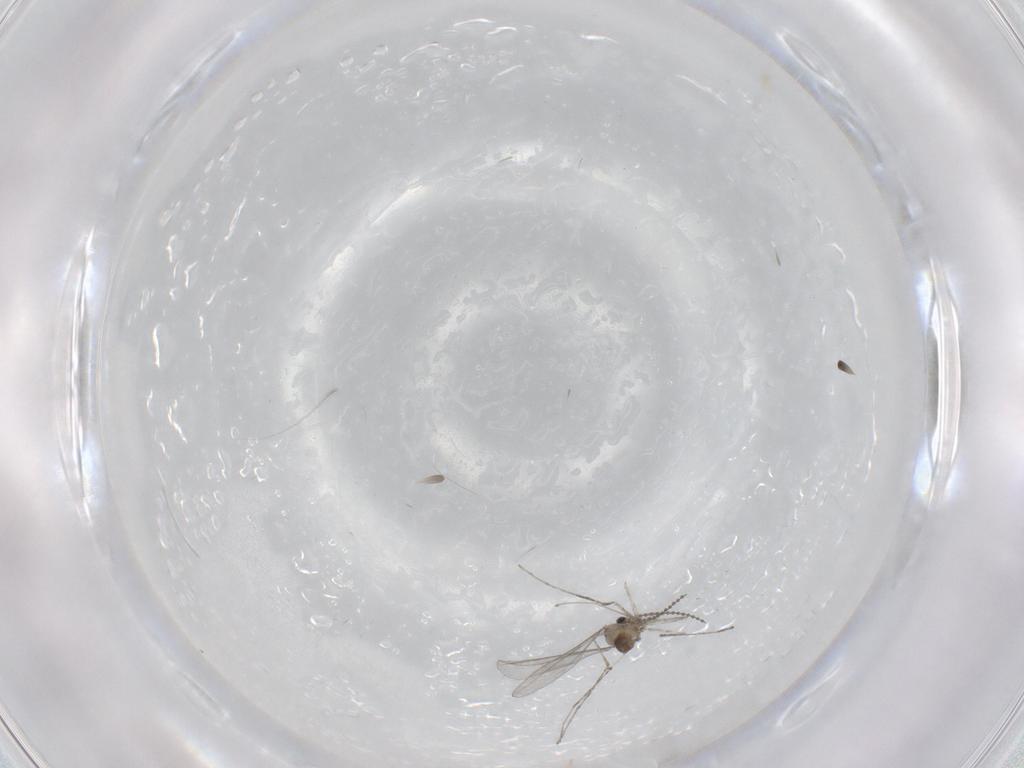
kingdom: Animalia
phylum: Arthropoda
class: Insecta
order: Diptera
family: Cecidomyiidae
